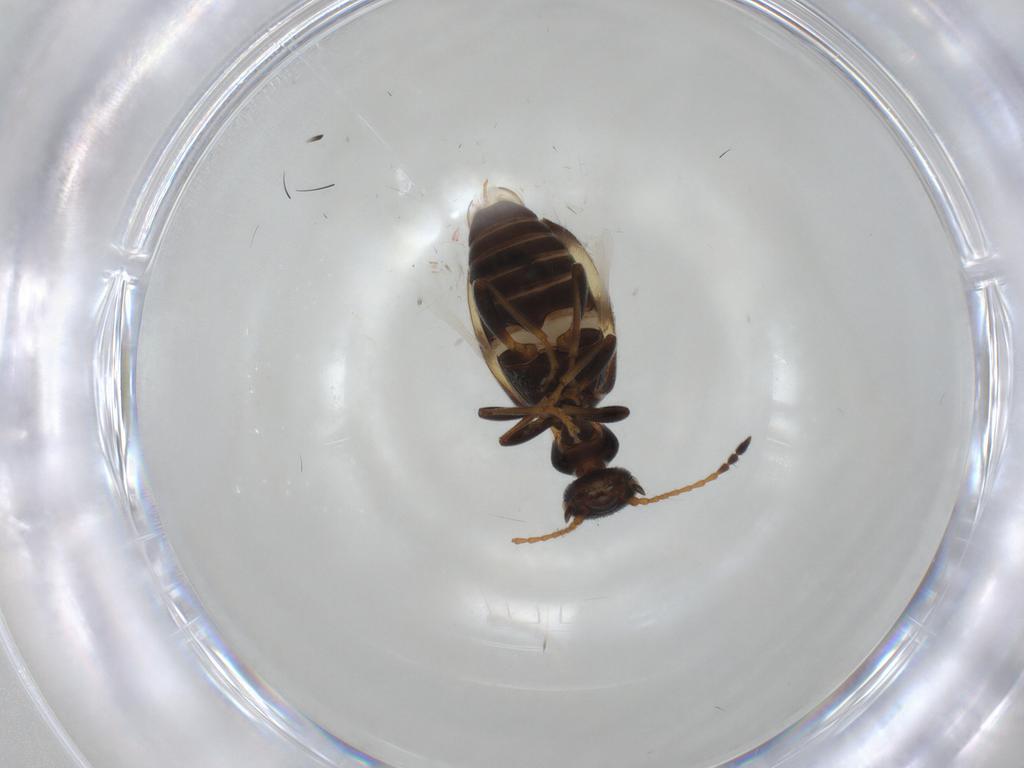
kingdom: Animalia
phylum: Arthropoda
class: Insecta
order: Coleoptera
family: Anthicidae
